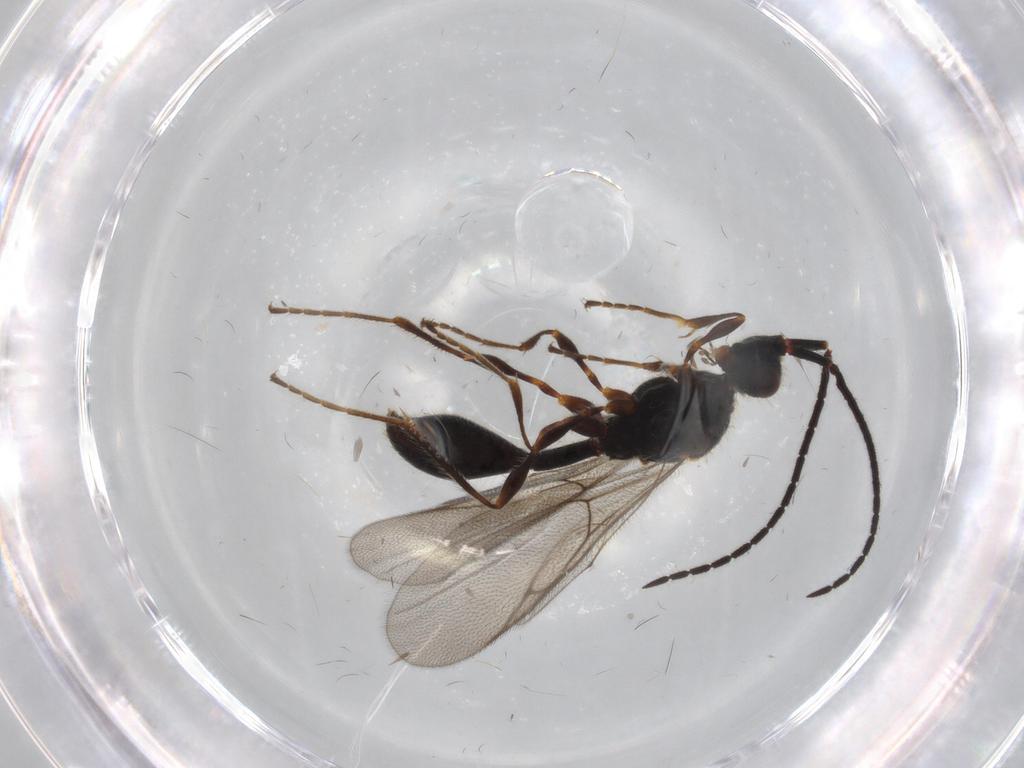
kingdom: Animalia
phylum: Arthropoda
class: Insecta
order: Hymenoptera
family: Diapriidae
